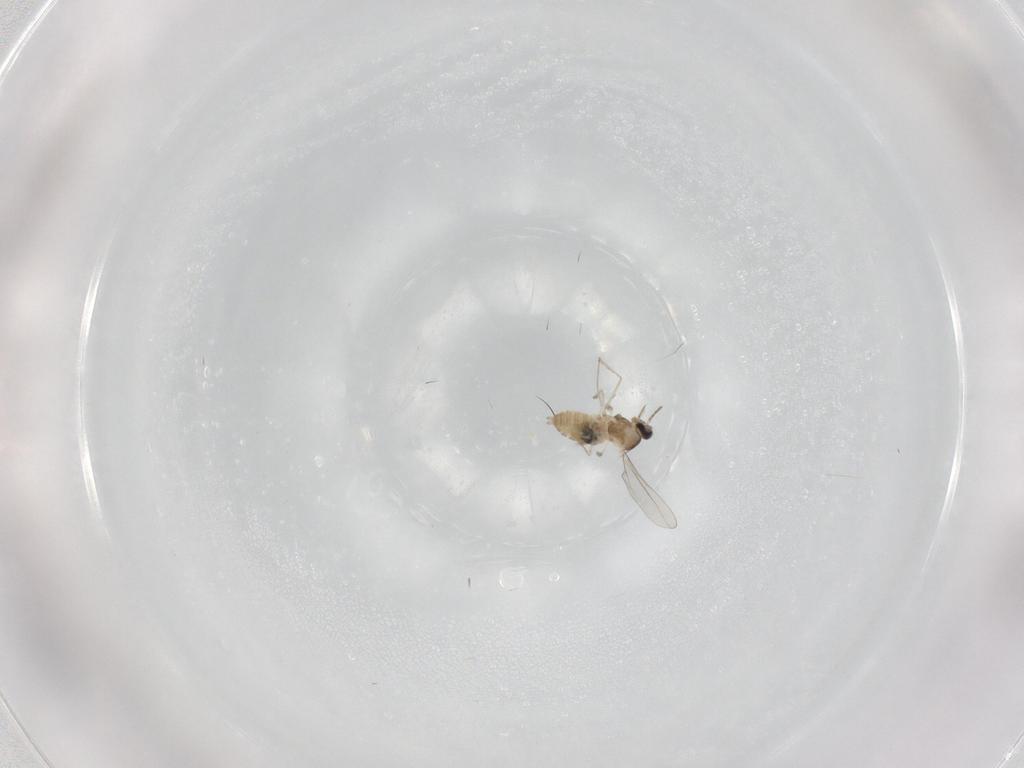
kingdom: Animalia
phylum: Arthropoda
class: Insecta
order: Diptera
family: Cecidomyiidae
